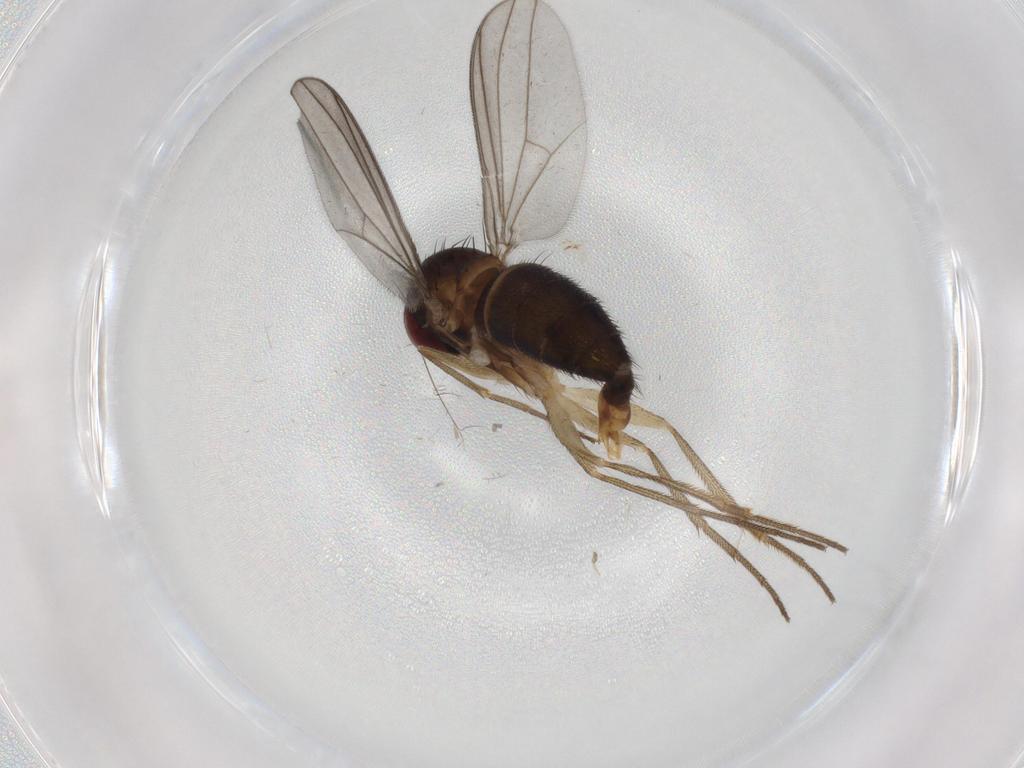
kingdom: Animalia
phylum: Arthropoda
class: Insecta
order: Diptera
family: Cecidomyiidae
